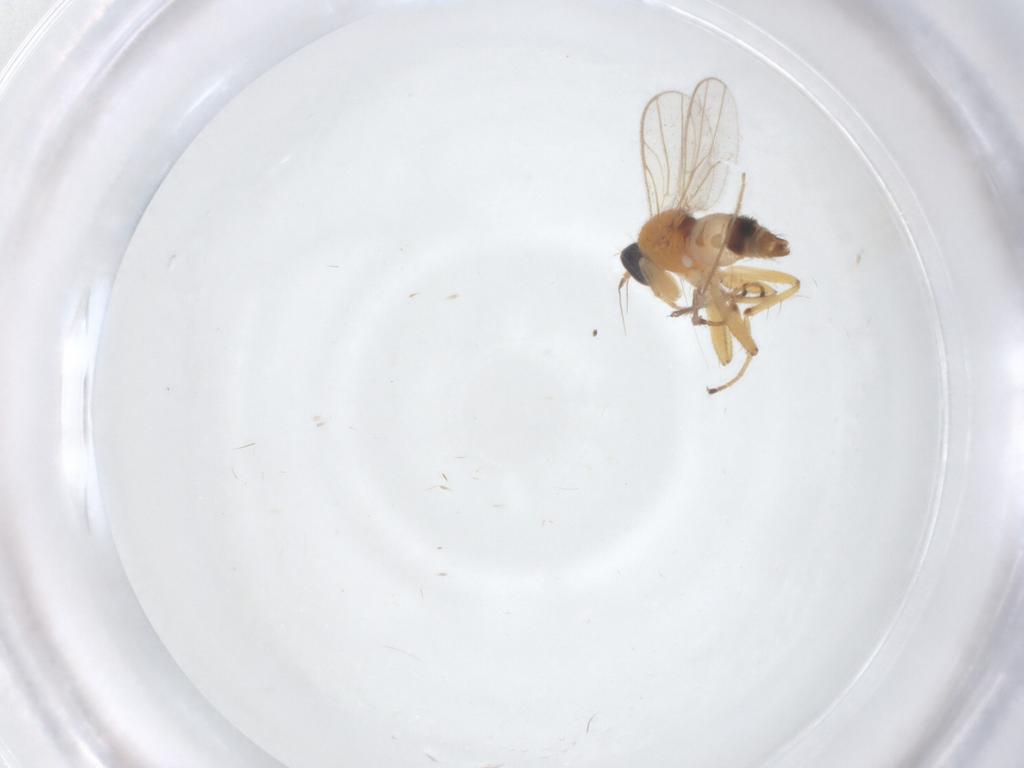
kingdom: Animalia
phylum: Arthropoda
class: Insecta
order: Diptera
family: Hybotidae
